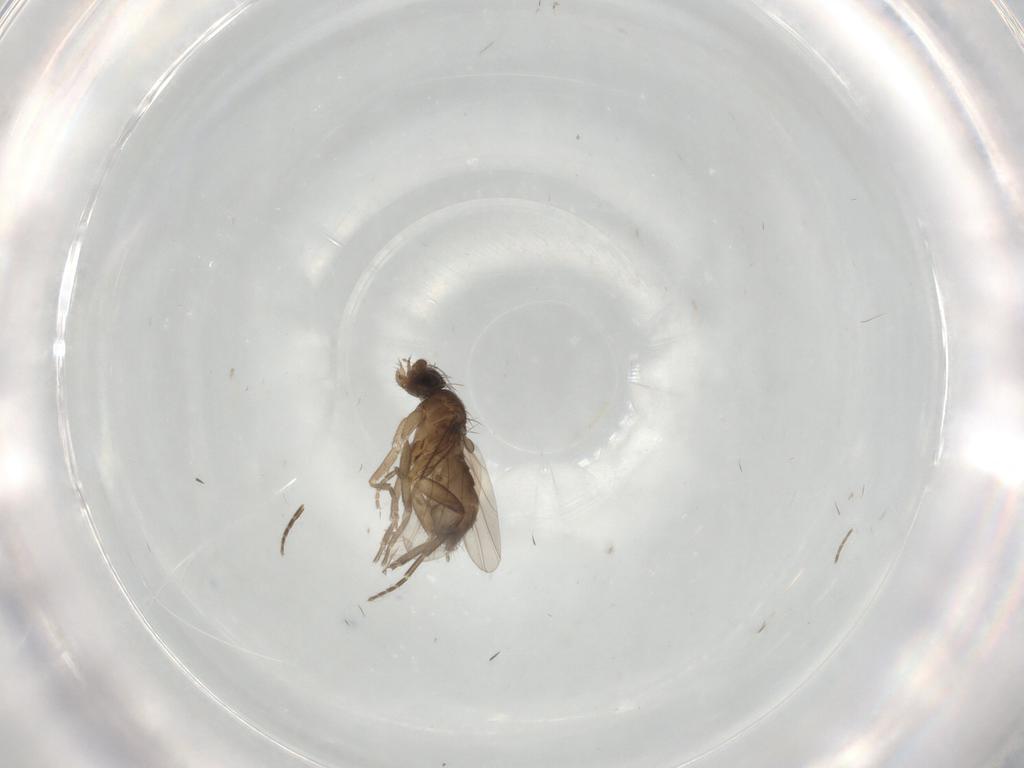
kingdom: Animalia
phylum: Arthropoda
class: Insecta
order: Diptera
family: Phoridae
